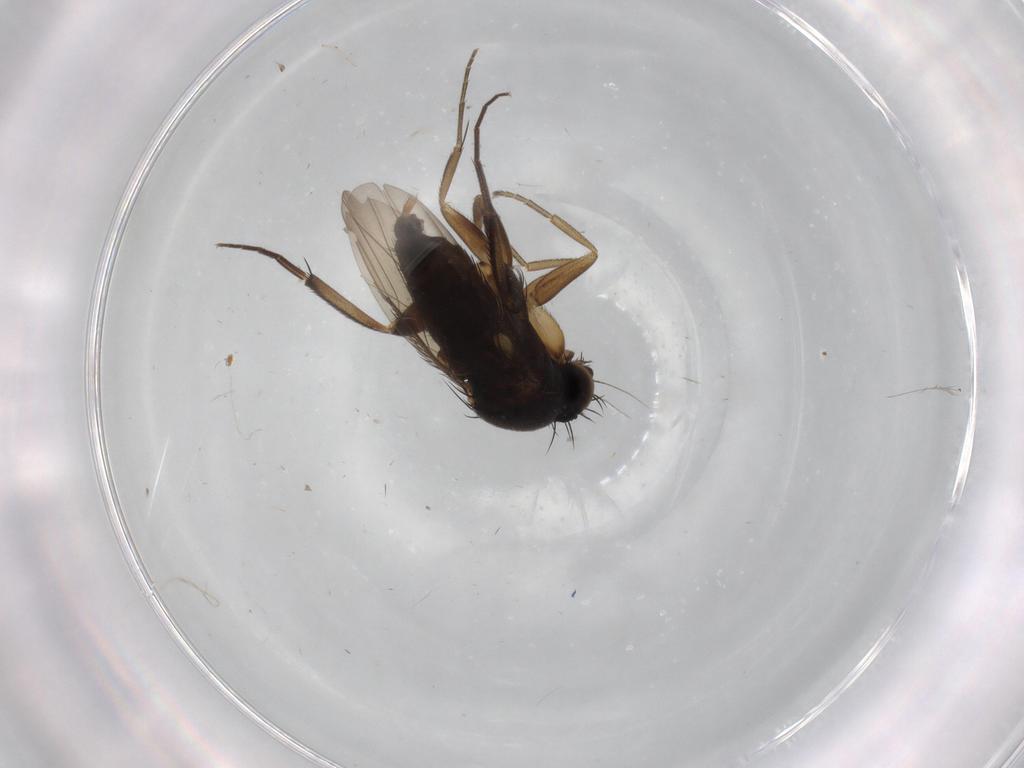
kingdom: Animalia
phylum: Arthropoda
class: Insecta
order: Diptera
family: Phoridae
